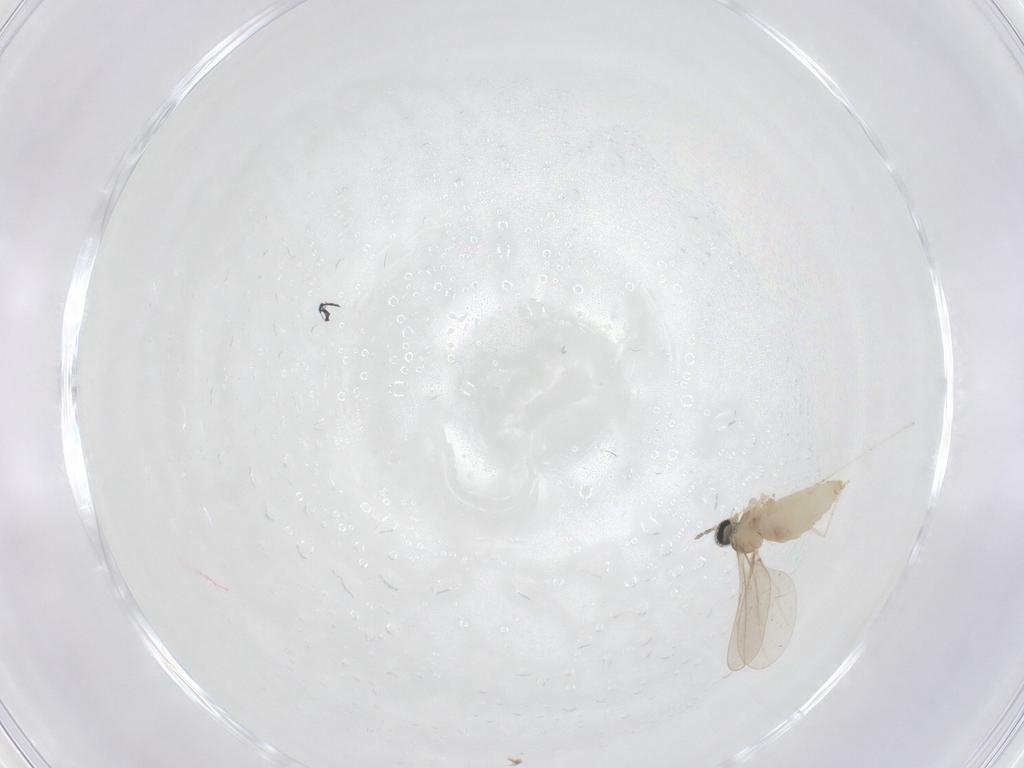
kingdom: Animalia
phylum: Arthropoda
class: Insecta
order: Diptera
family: Cecidomyiidae
